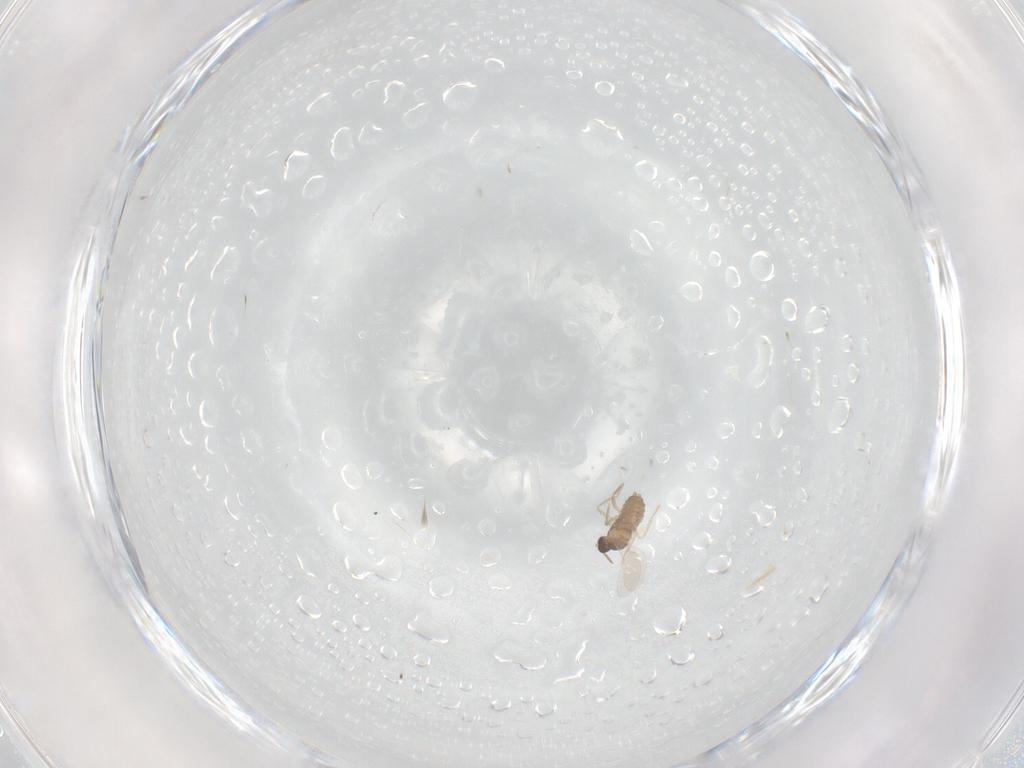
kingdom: Animalia
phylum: Arthropoda
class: Insecta
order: Diptera
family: Cecidomyiidae
